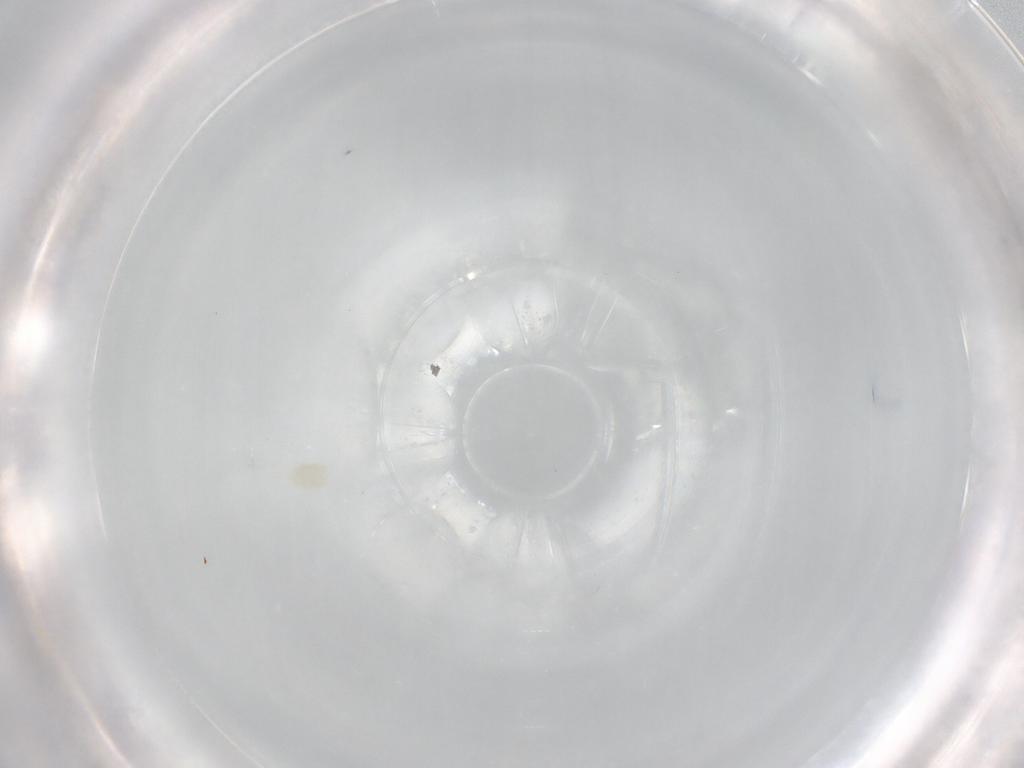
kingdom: Animalia
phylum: Arthropoda
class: Arachnida
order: Sarcoptiformes
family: Alycidae
